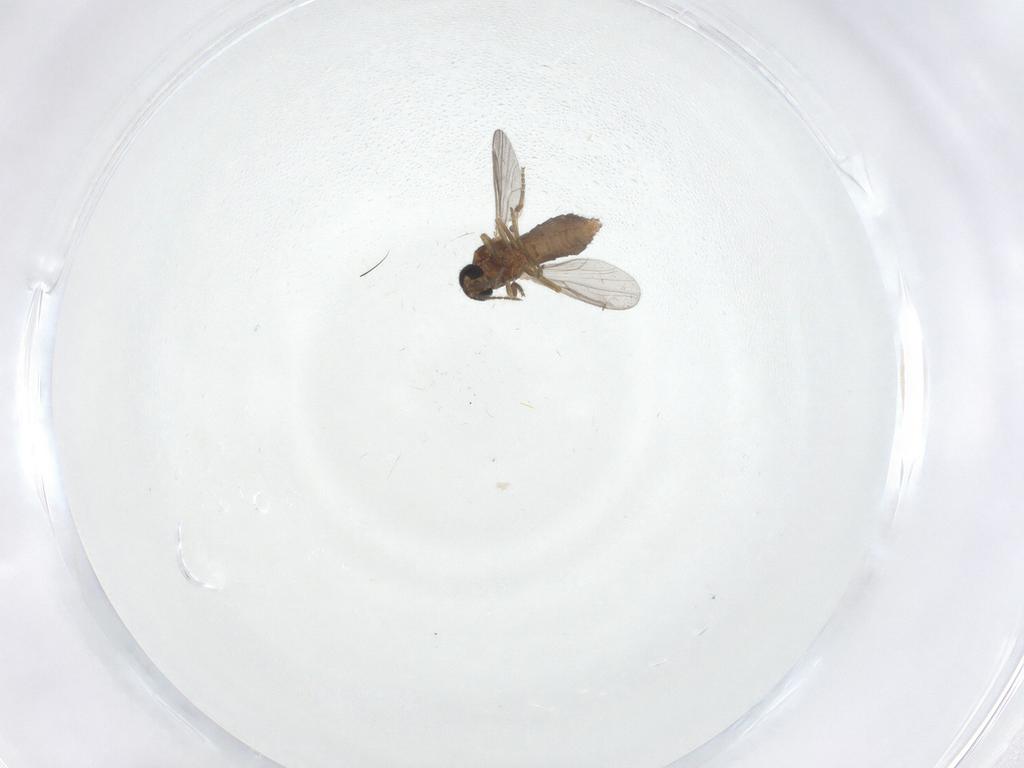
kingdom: Animalia
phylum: Arthropoda
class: Insecta
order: Diptera
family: Ceratopogonidae
